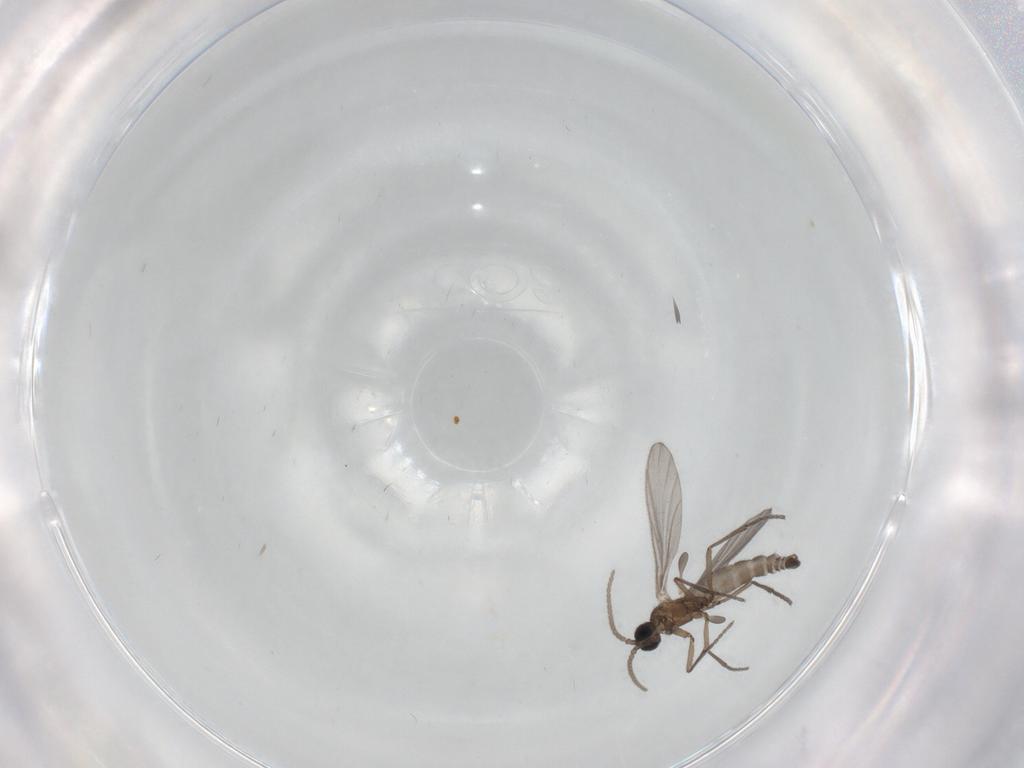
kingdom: Animalia
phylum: Arthropoda
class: Insecta
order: Diptera
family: Sciaridae
